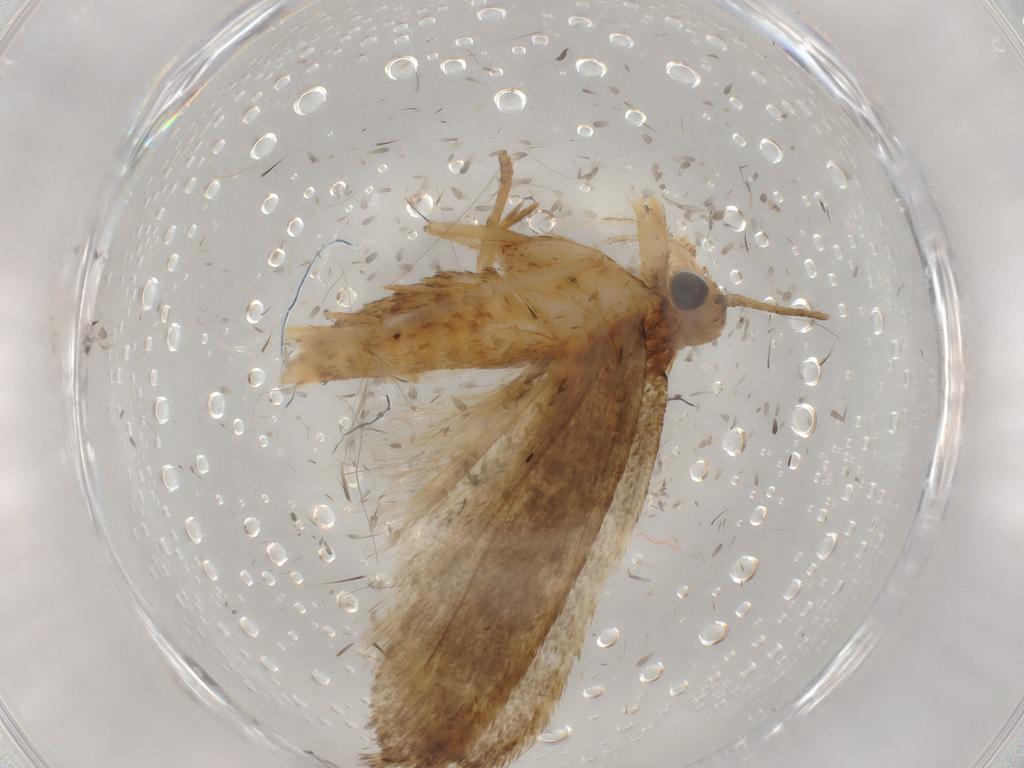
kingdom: Animalia
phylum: Arthropoda
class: Insecta
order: Lepidoptera
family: Autostichidae
